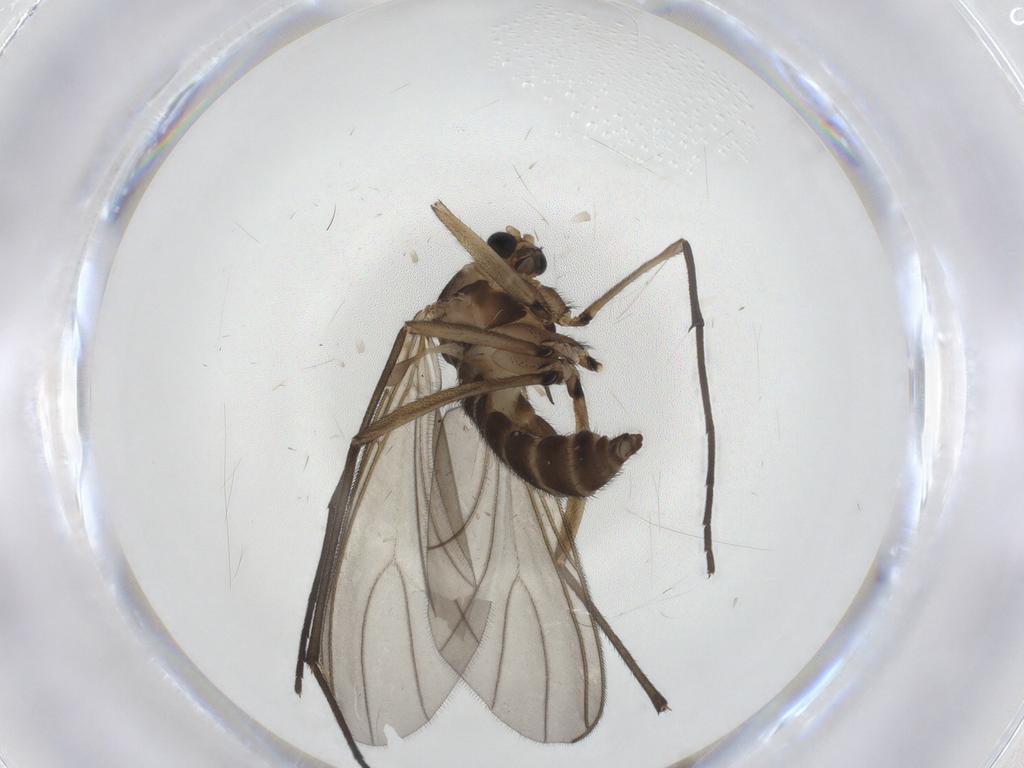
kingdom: Animalia
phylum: Arthropoda
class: Insecta
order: Diptera
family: Sciaridae
